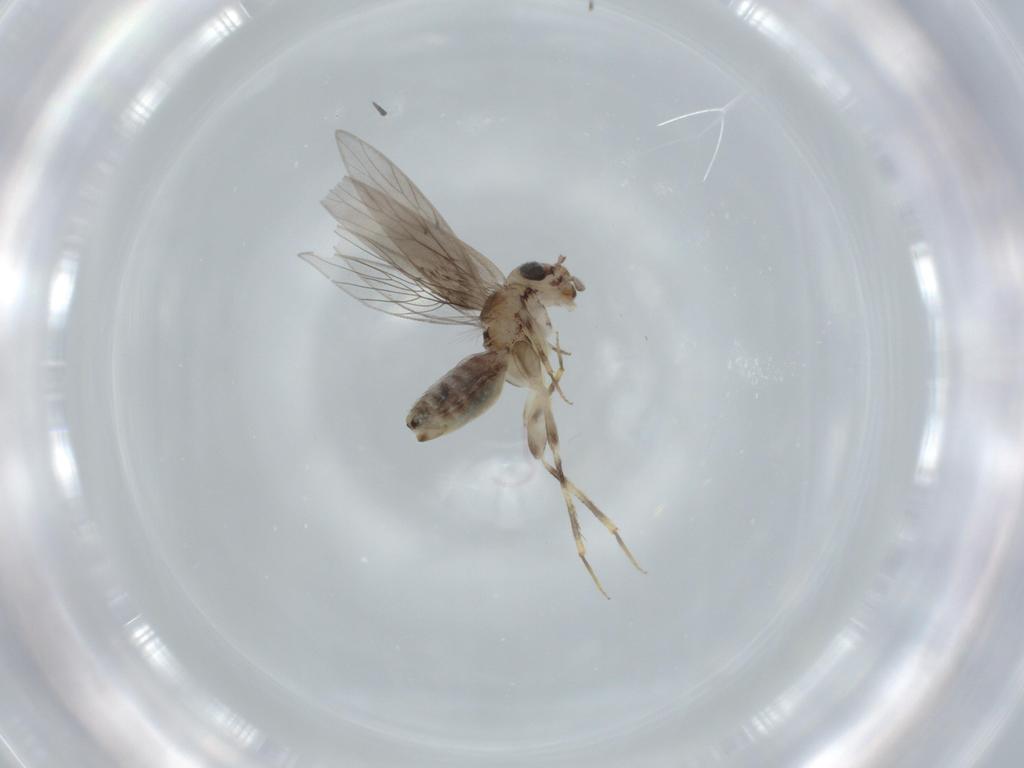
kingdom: Animalia
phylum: Arthropoda
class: Insecta
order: Psocodea
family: Lepidopsocidae
